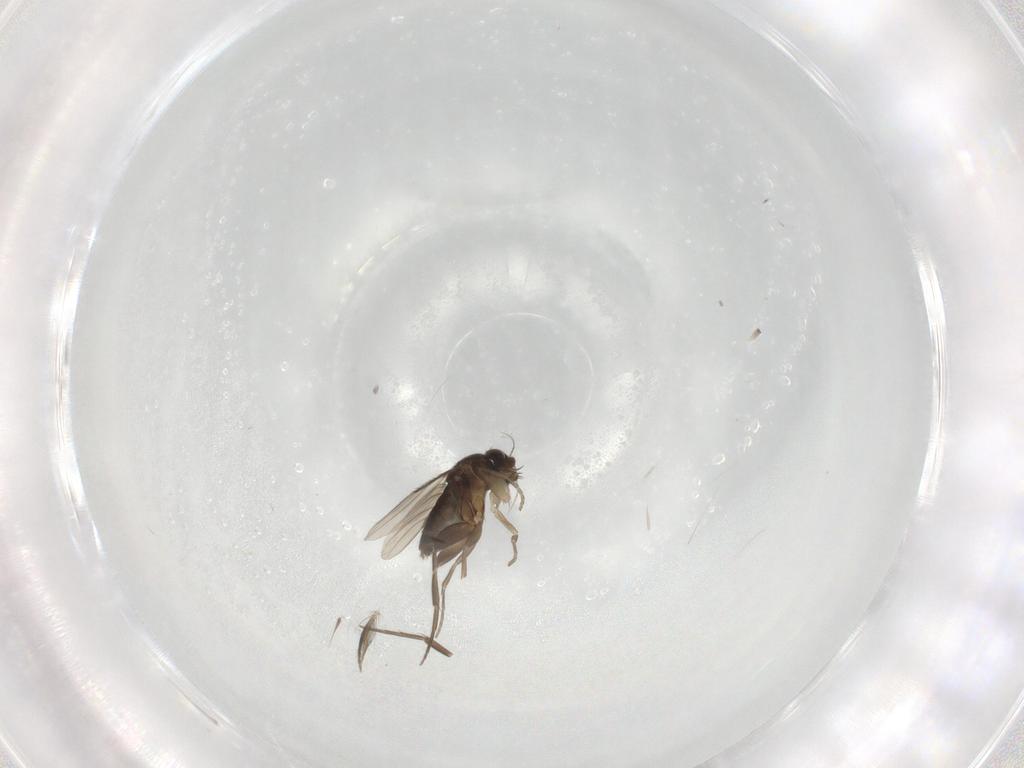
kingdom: Animalia
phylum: Arthropoda
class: Insecta
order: Diptera
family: Phoridae
